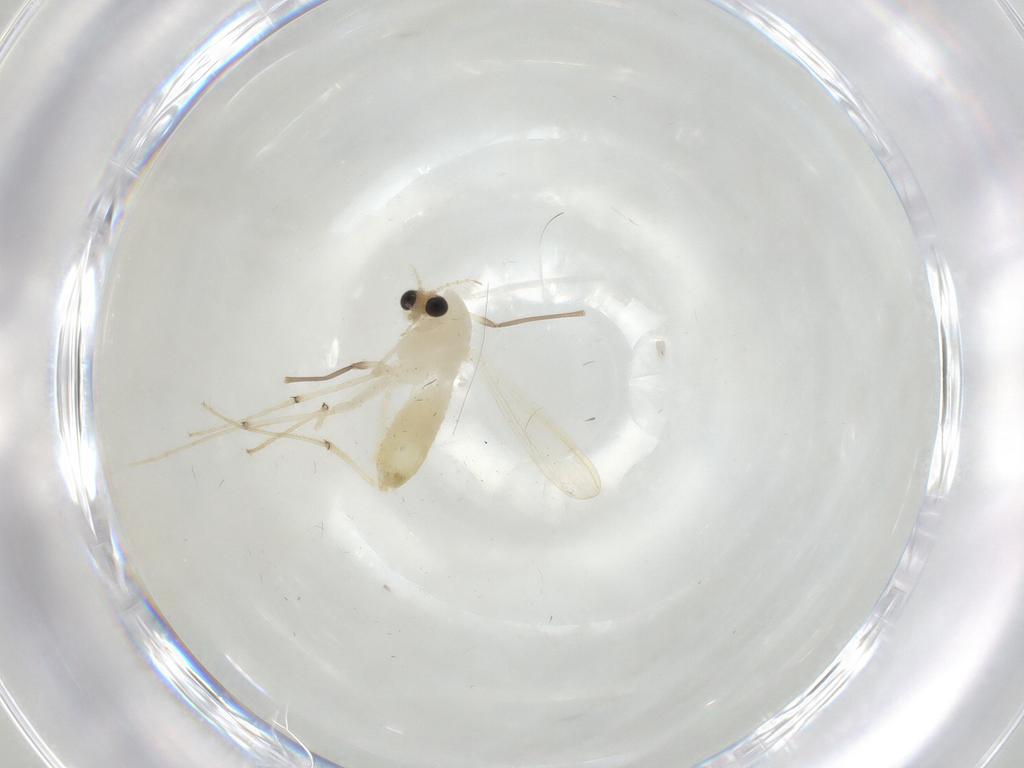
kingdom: Animalia
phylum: Arthropoda
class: Insecta
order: Diptera
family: Chironomidae
